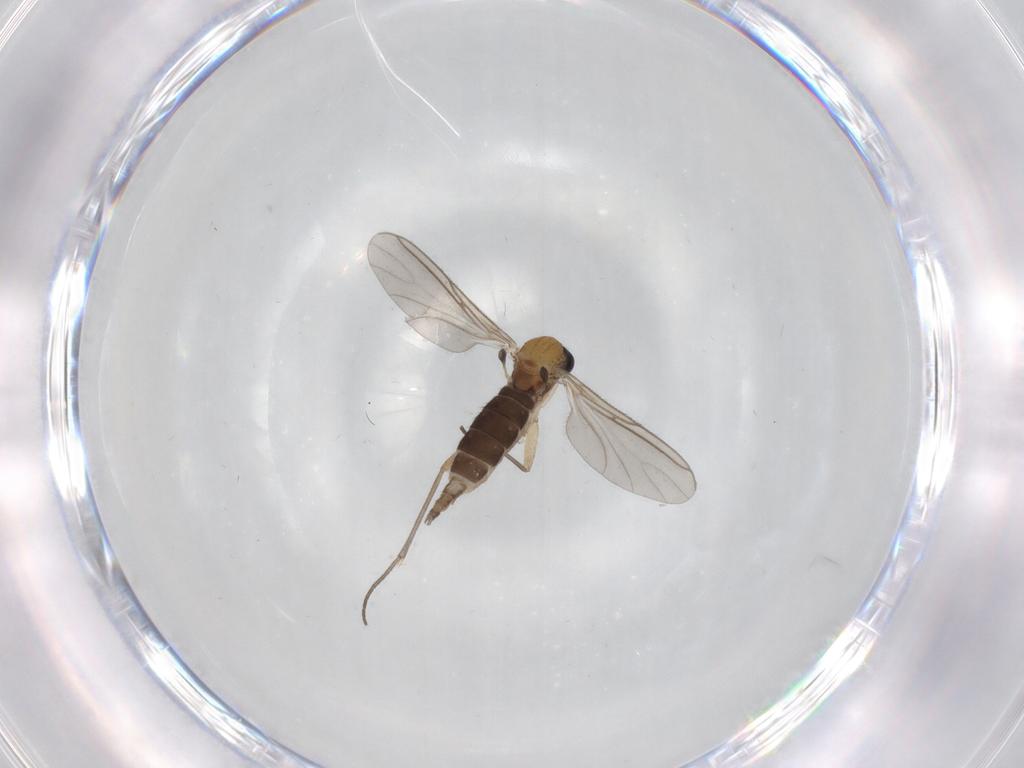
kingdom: Animalia
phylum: Arthropoda
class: Insecta
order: Diptera
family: Sciaridae
